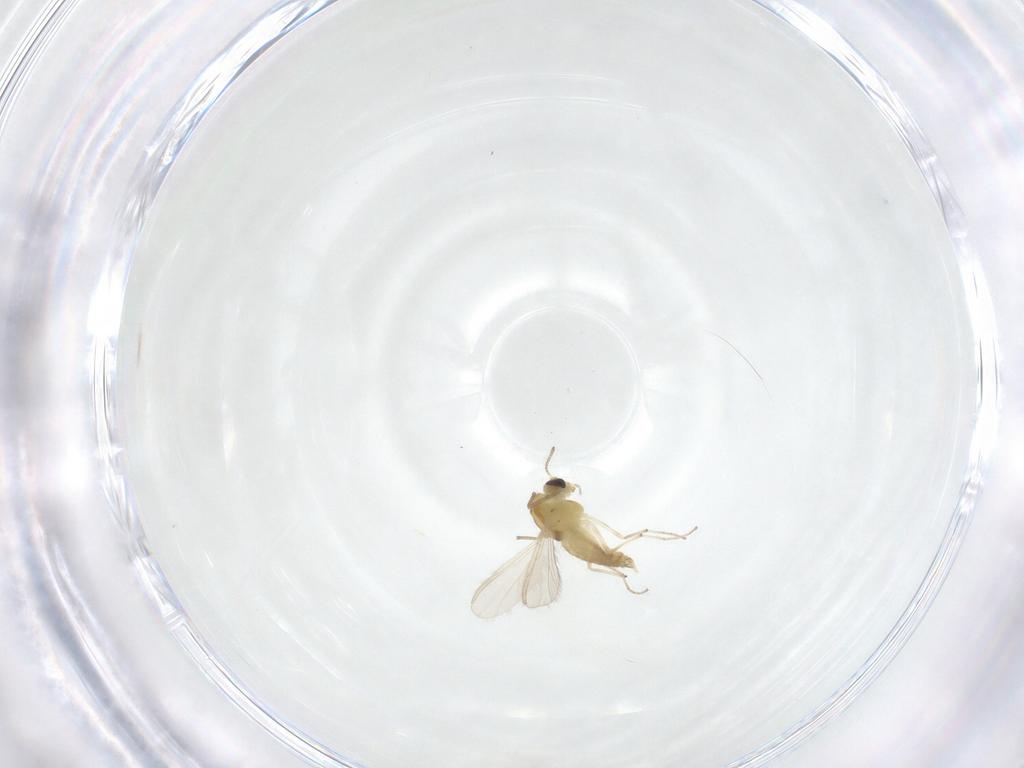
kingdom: Animalia
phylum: Arthropoda
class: Insecta
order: Diptera
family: Chironomidae
